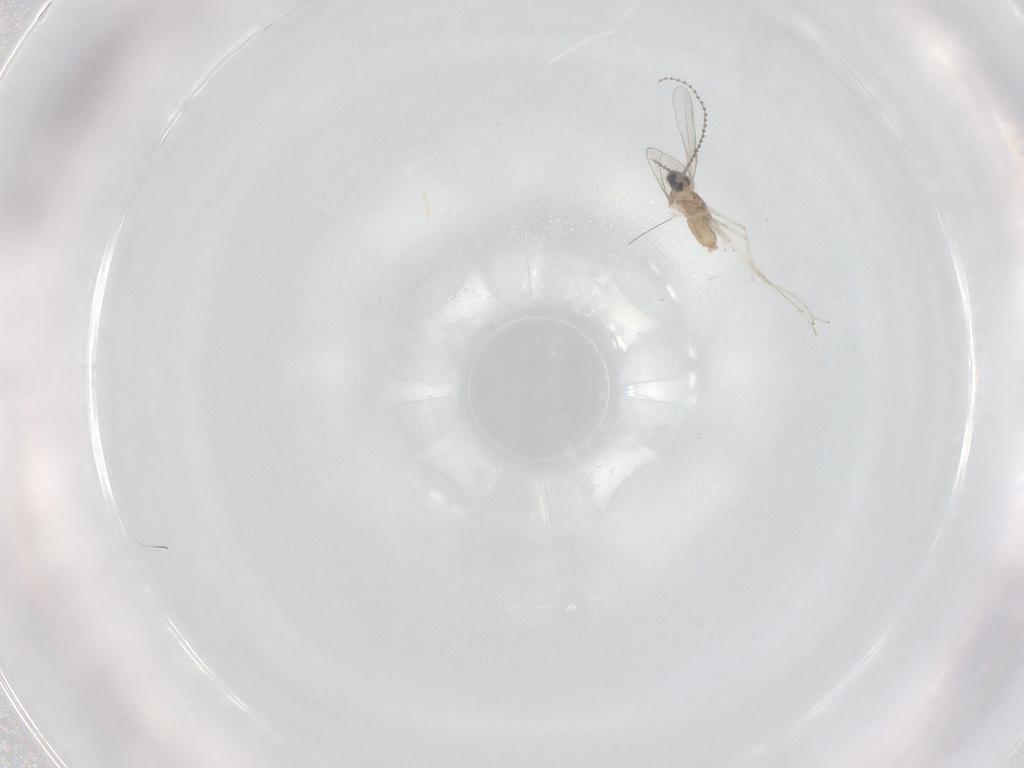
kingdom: Animalia
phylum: Arthropoda
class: Insecta
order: Diptera
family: Cecidomyiidae
